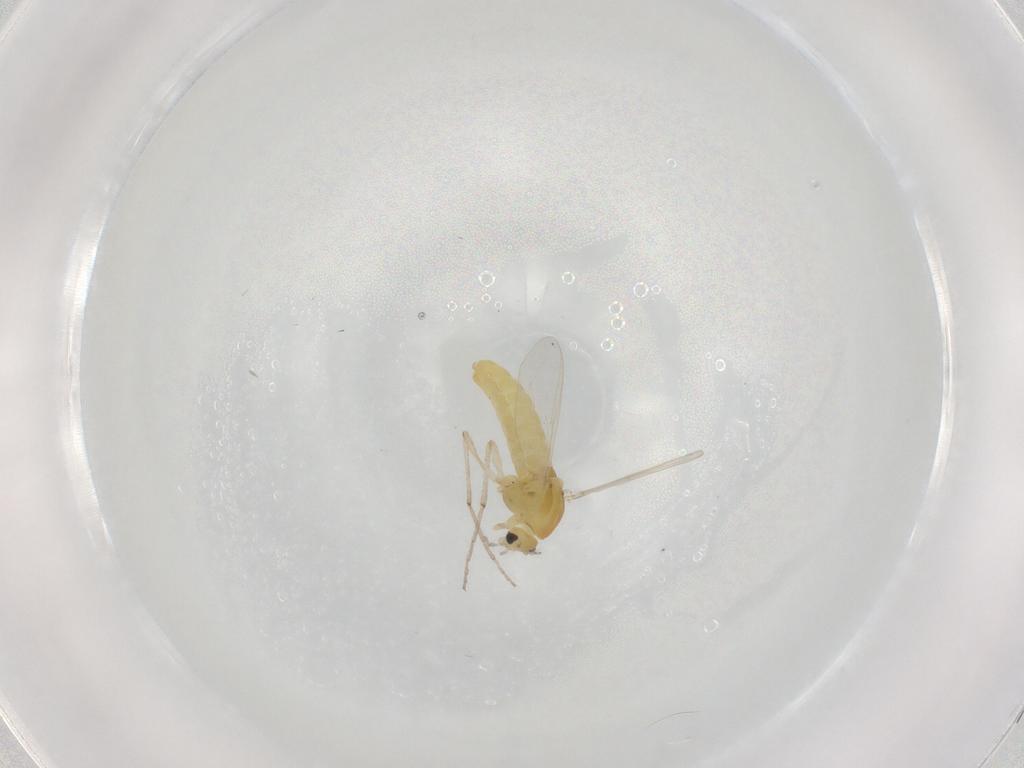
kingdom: Animalia
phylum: Arthropoda
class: Insecta
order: Diptera
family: Chironomidae
